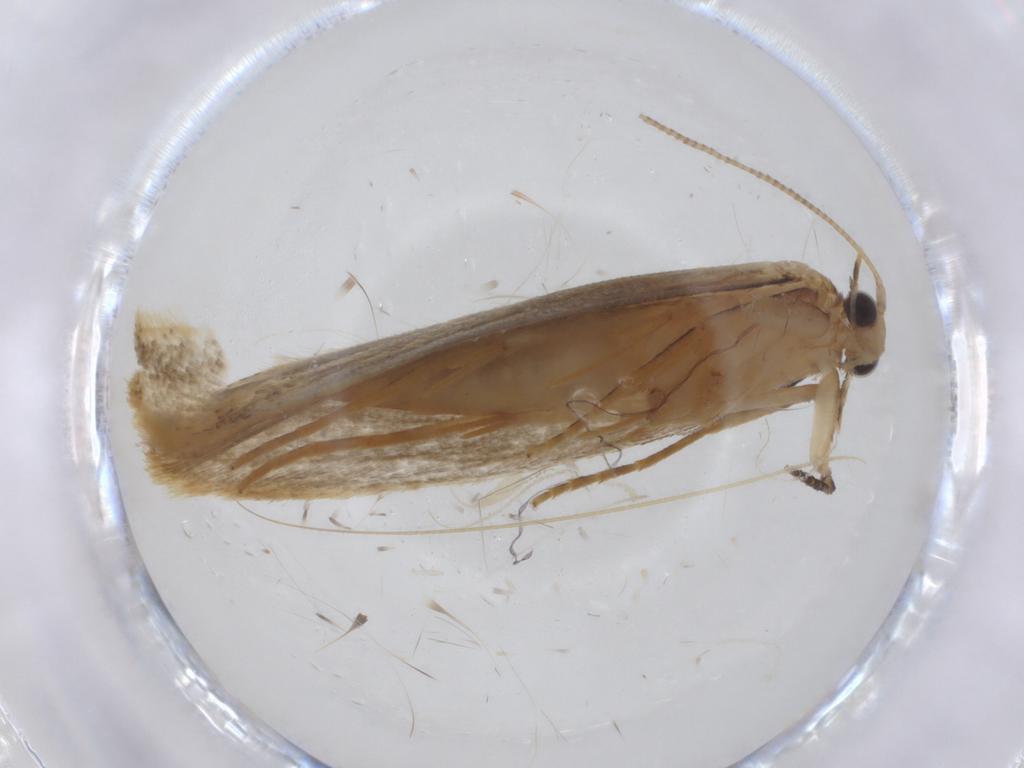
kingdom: Animalia
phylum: Arthropoda
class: Insecta
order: Lepidoptera
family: Tineidae
